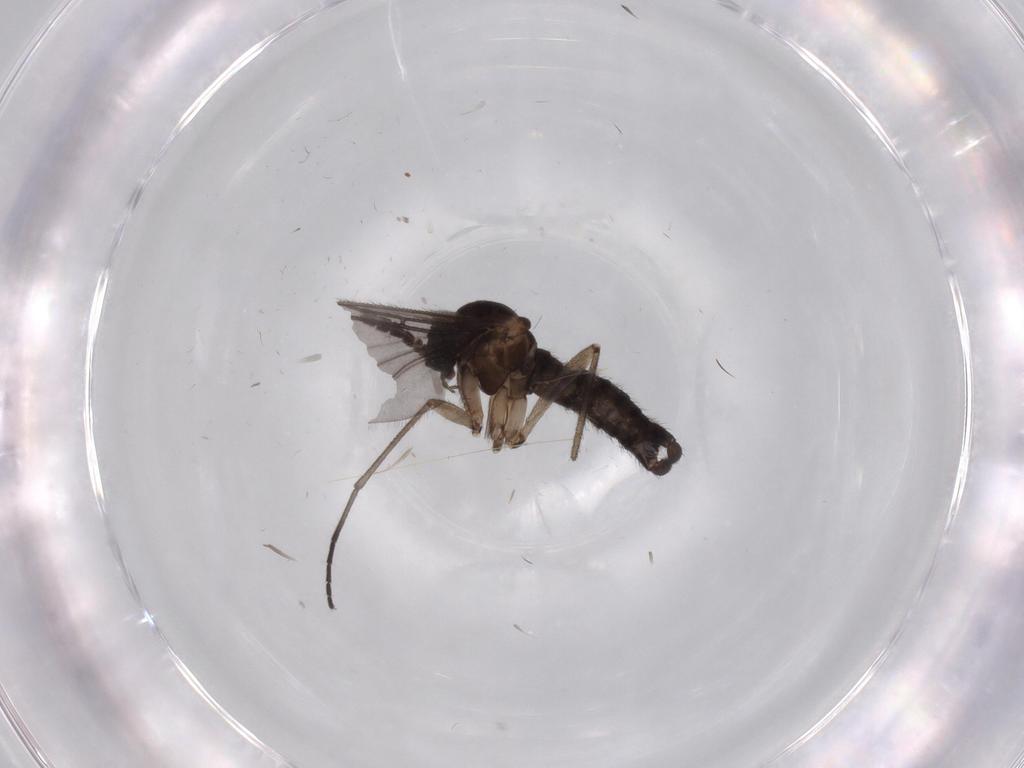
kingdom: Animalia
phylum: Arthropoda
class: Insecta
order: Diptera
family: Sciaridae
